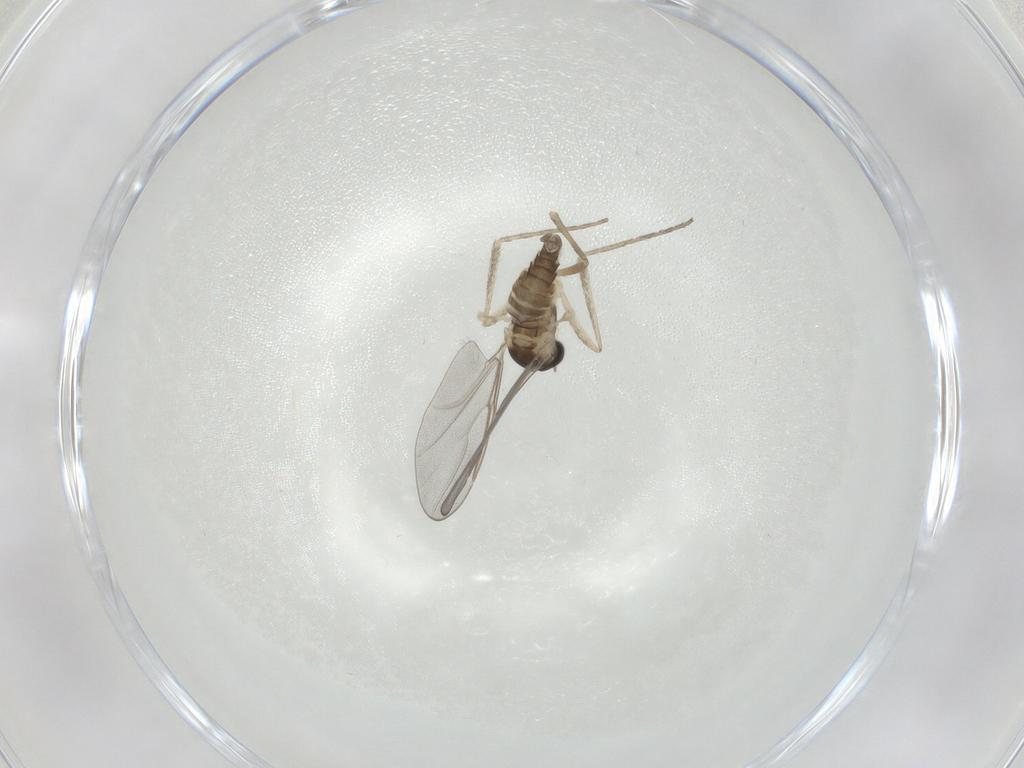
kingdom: Animalia
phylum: Arthropoda
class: Insecta
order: Diptera
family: Cecidomyiidae
